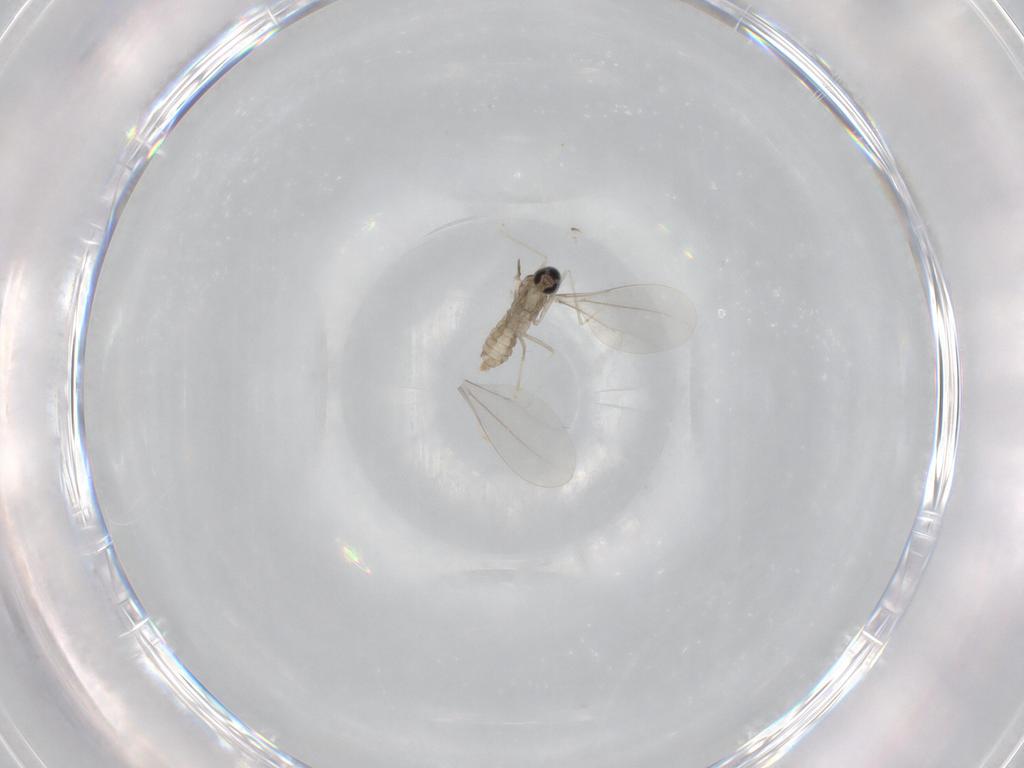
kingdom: Animalia
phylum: Arthropoda
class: Insecta
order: Diptera
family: Cecidomyiidae
